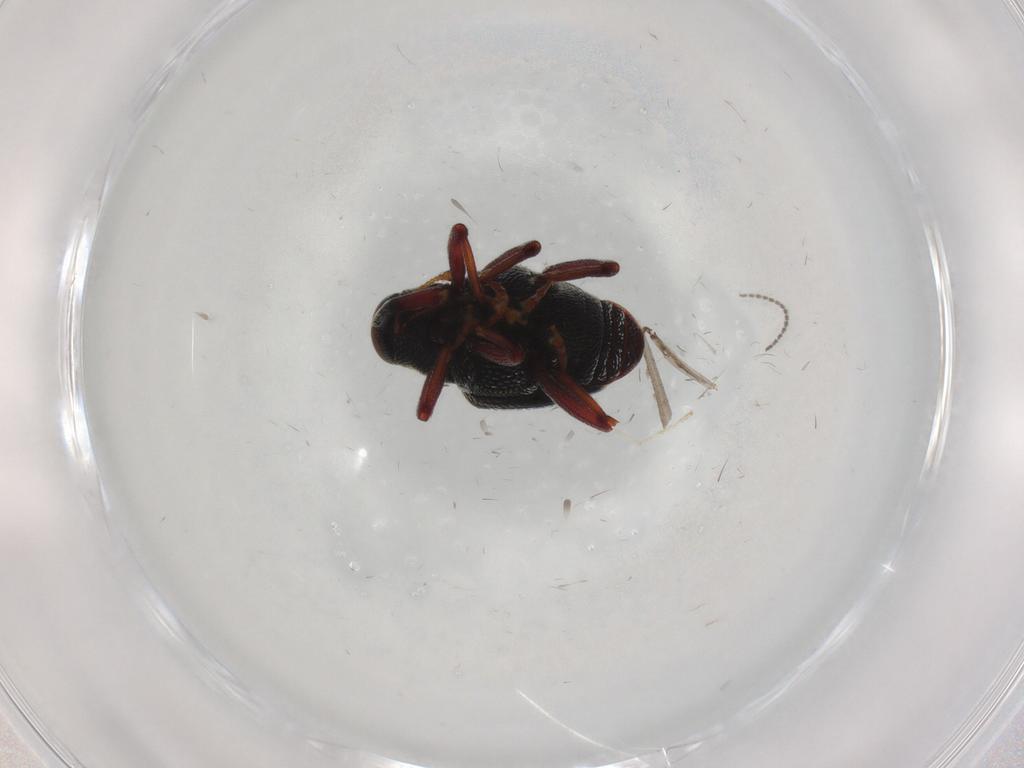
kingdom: Animalia
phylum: Arthropoda
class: Insecta
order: Coleoptera
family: Curculionidae
